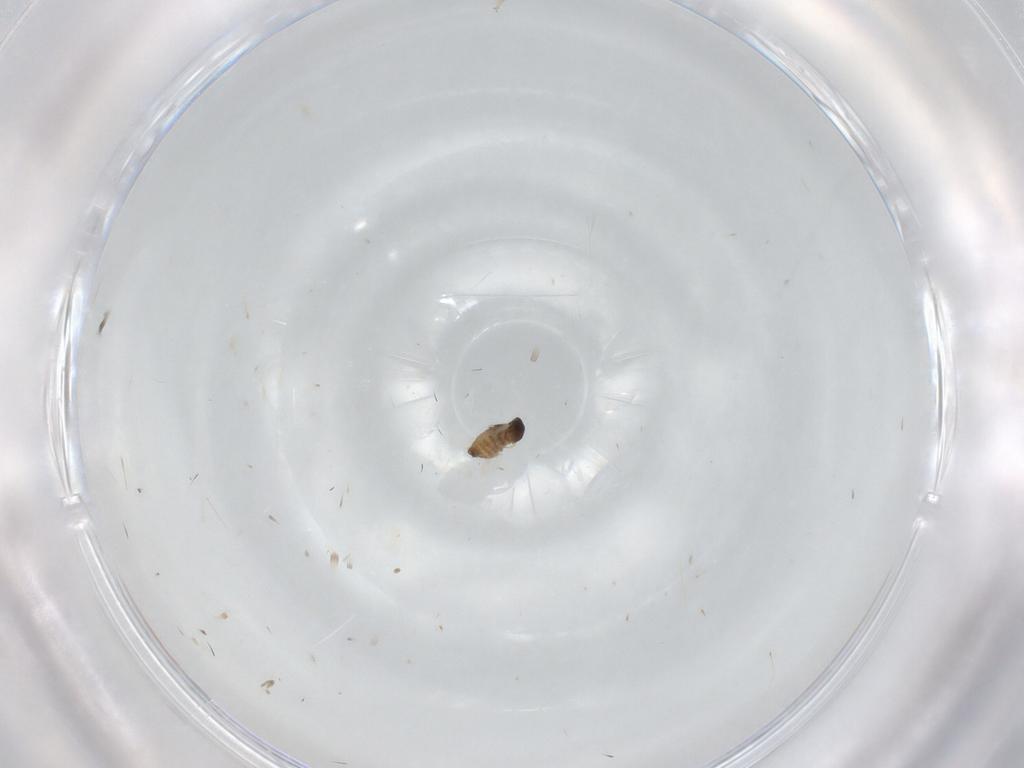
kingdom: Animalia
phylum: Arthropoda
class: Insecta
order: Diptera
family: Cecidomyiidae
